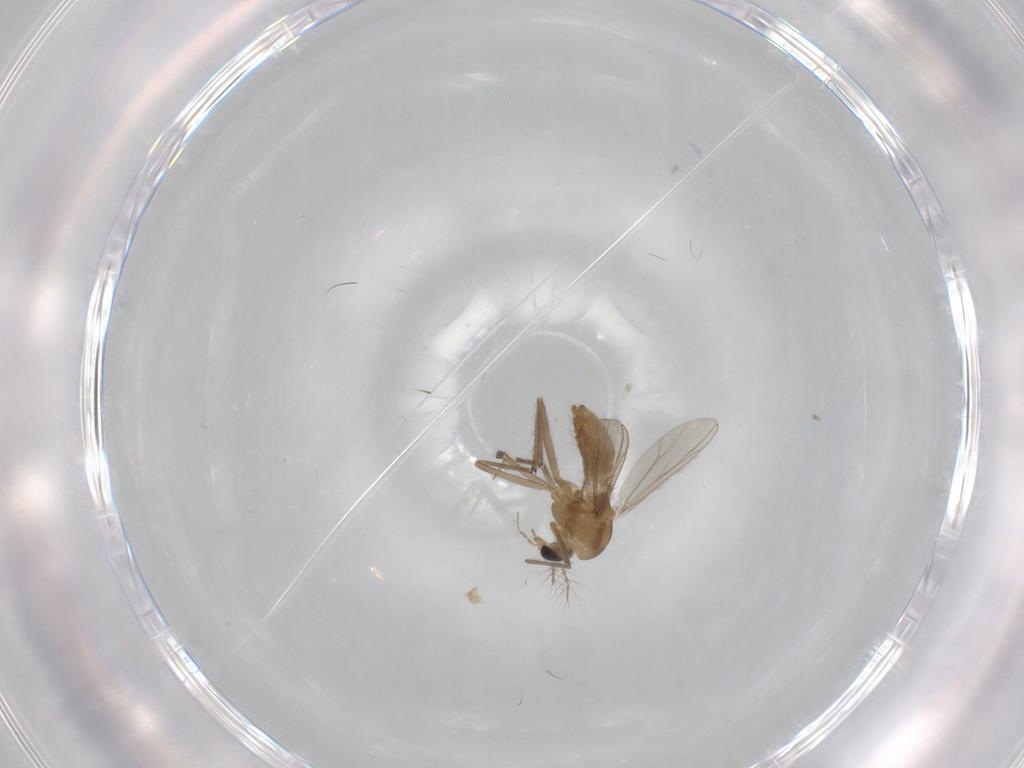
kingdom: Animalia
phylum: Arthropoda
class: Insecta
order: Diptera
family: Chironomidae
